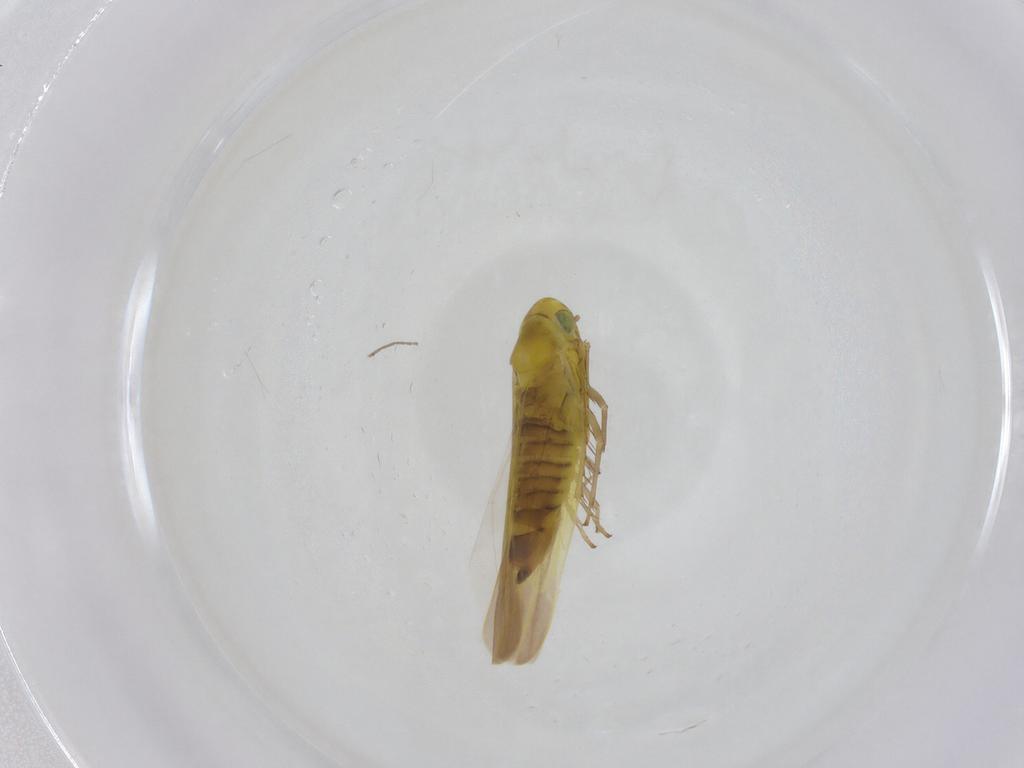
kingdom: Animalia
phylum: Arthropoda
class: Insecta
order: Hemiptera
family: Cicadellidae
